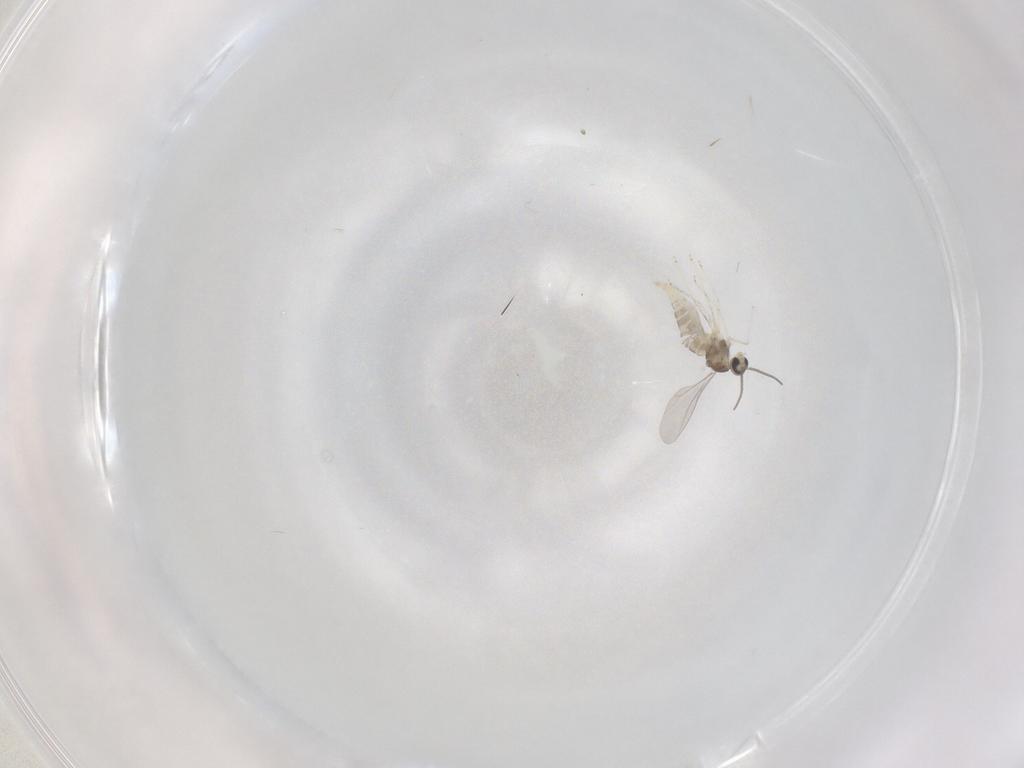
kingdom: Animalia
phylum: Arthropoda
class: Insecta
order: Diptera
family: Cecidomyiidae
